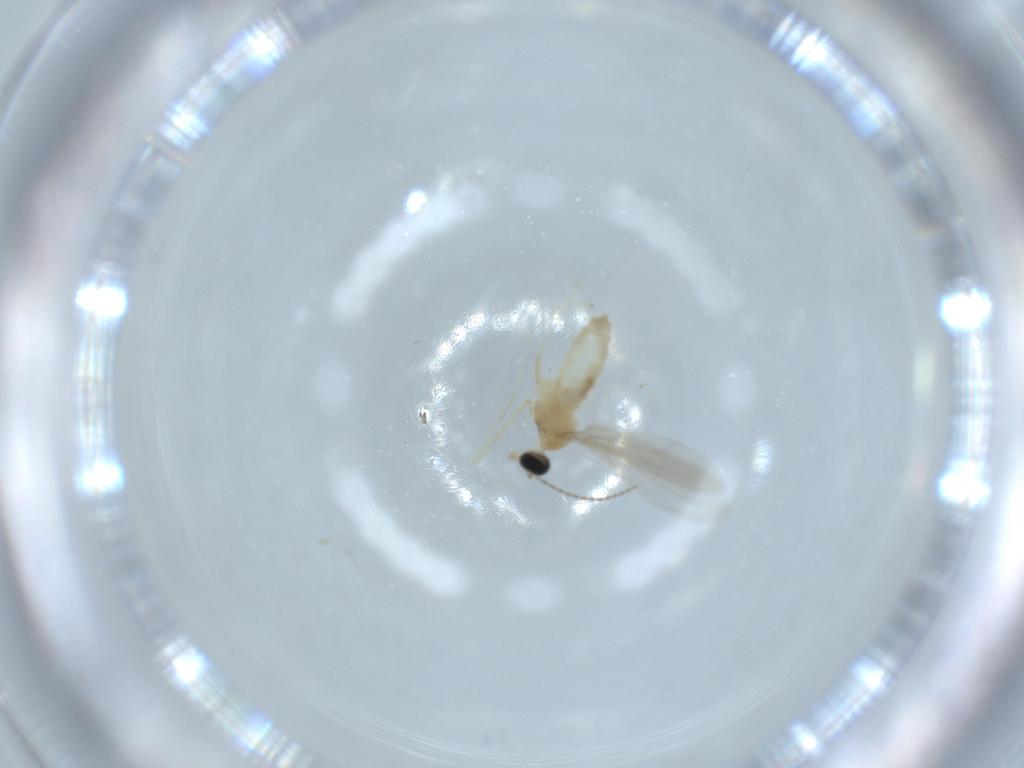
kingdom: Animalia
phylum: Arthropoda
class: Insecta
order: Diptera
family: Cecidomyiidae
